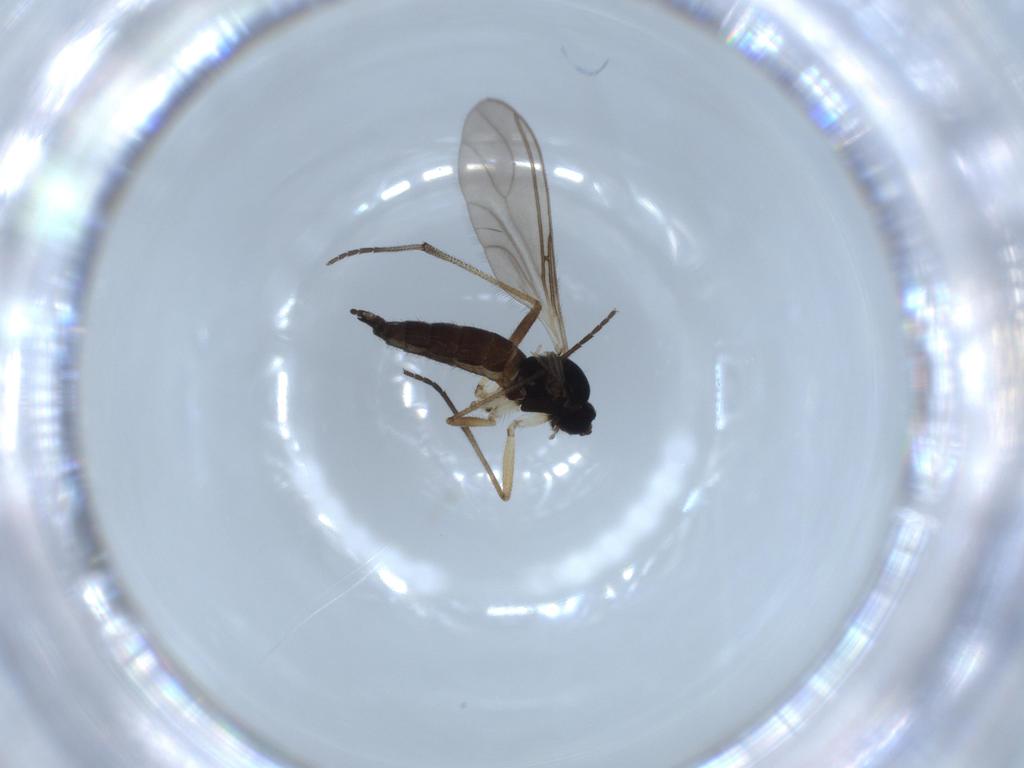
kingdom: Animalia
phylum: Arthropoda
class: Insecta
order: Diptera
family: Sciaridae
